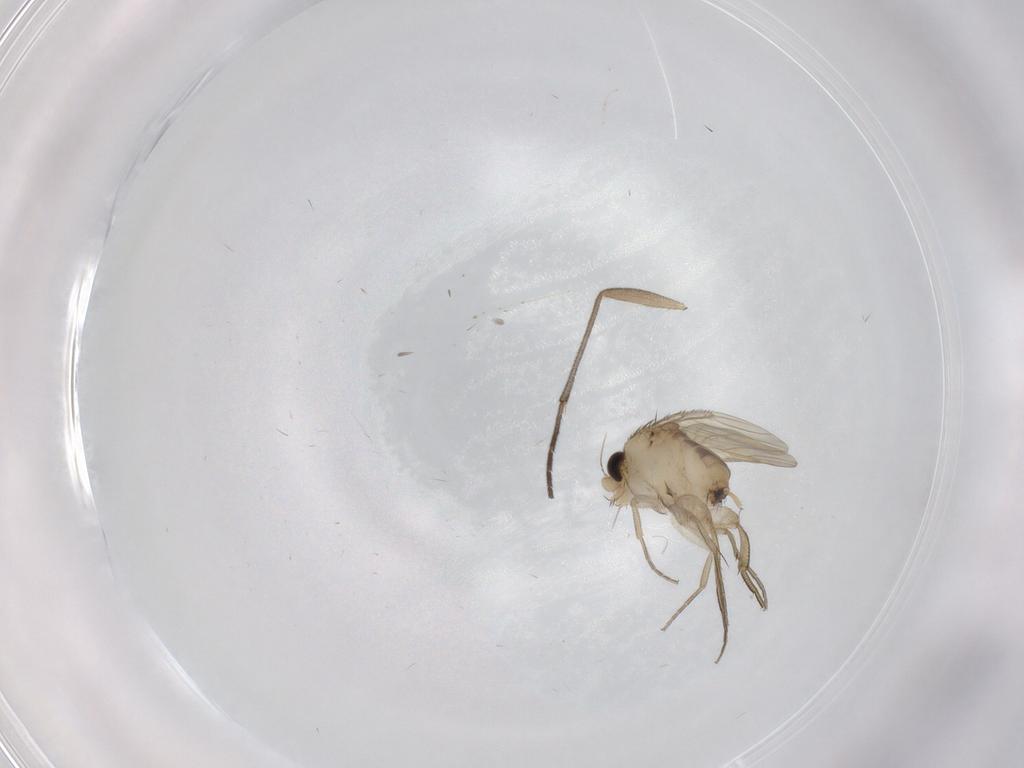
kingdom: Animalia
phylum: Arthropoda
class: Insecta
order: Diptera
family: Phoridae
